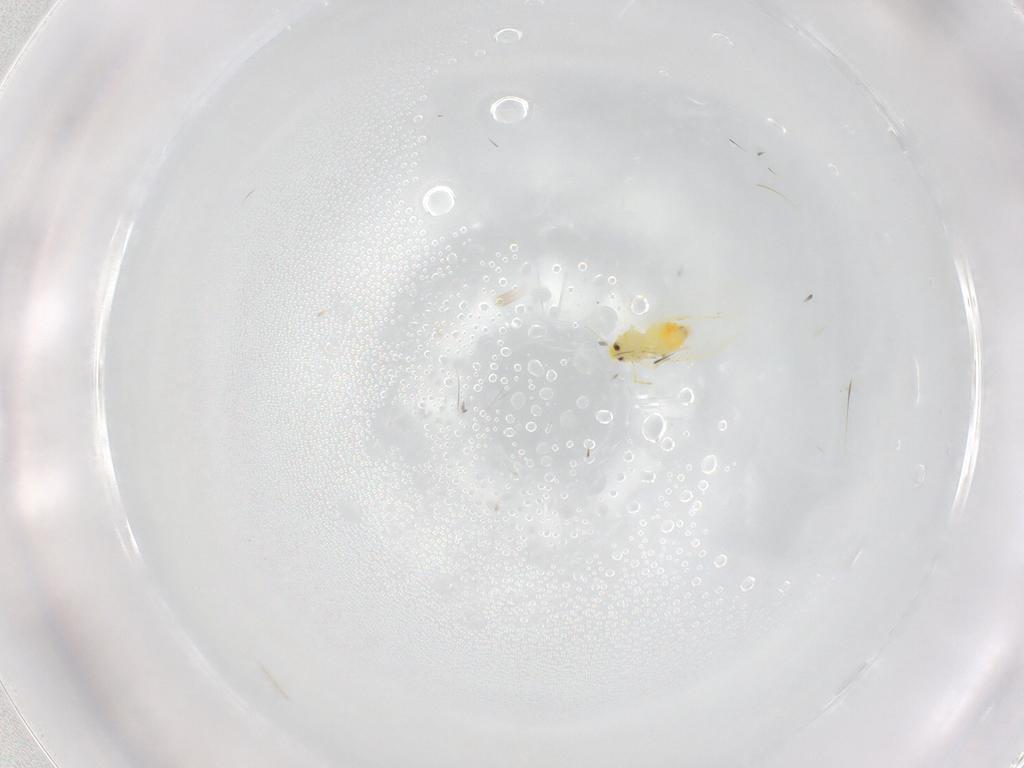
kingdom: Animalia
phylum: Arthropoda
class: Insecta
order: Hemiptera
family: Aleyrodidae
